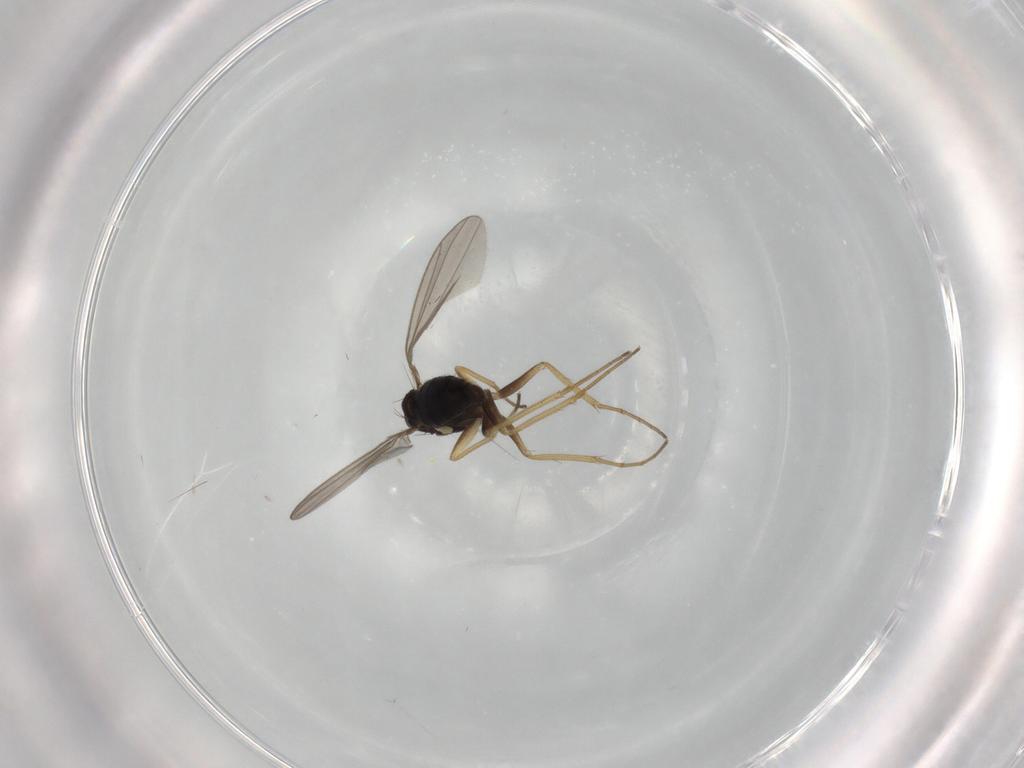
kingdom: Animalia
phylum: Arthropoda
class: Insecta
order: Diptera
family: Dolichopodidae
